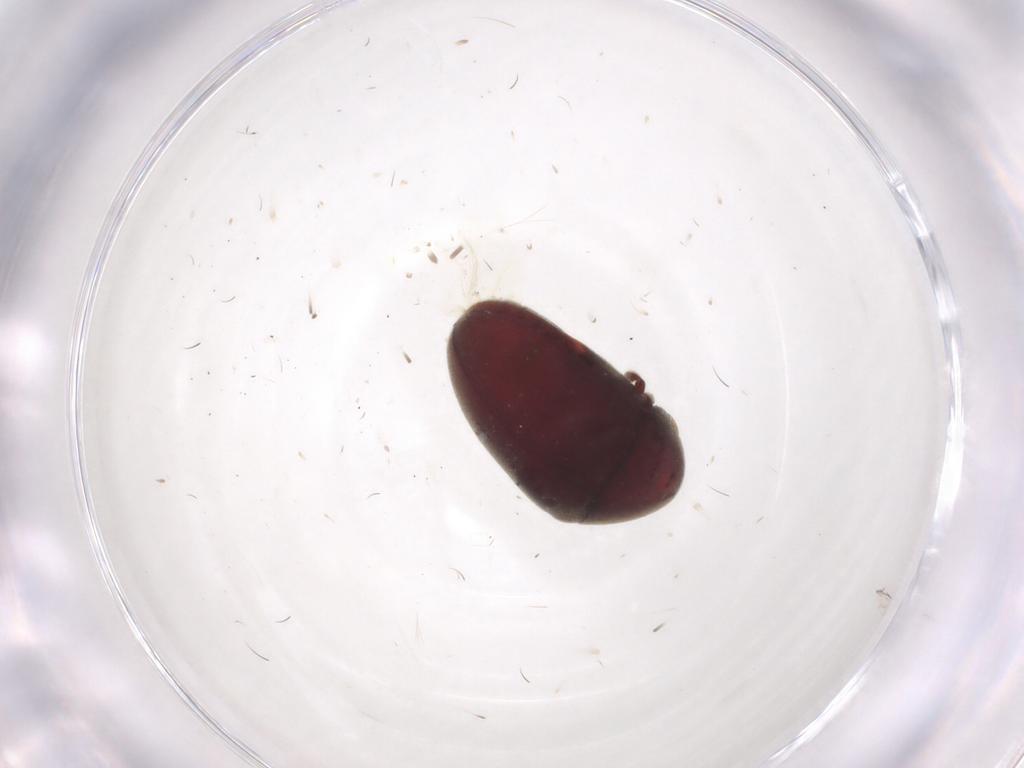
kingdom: Animalia
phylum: Arthropoda
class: Insecta
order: Coleoptera
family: Ptinidae
